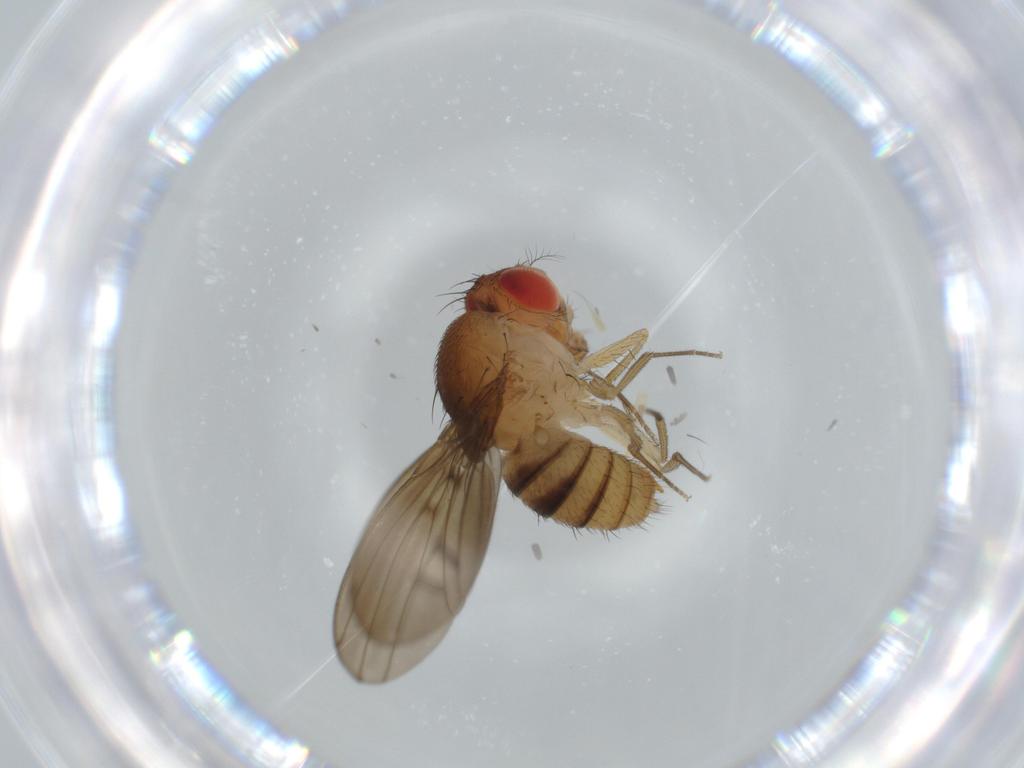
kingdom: Animalia
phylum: Arthropoda
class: Insecta
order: Diptera
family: Drosophilidae
